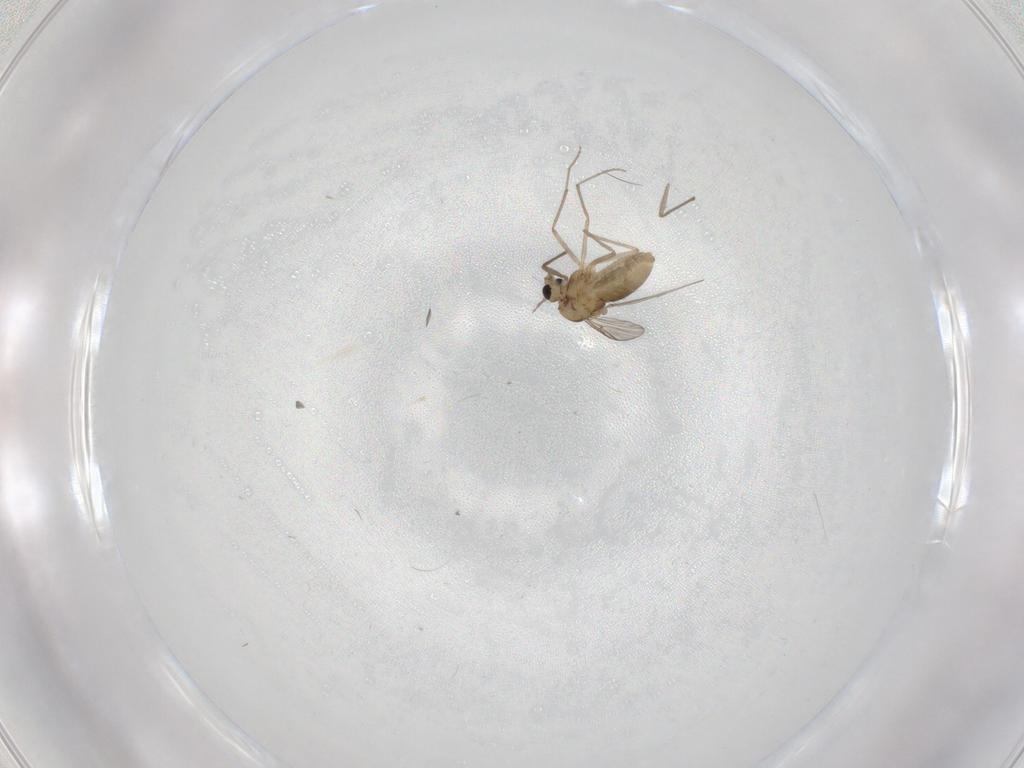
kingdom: Animalia
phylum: Arthropoda
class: Insecta
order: Diptera
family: Chironomidae
